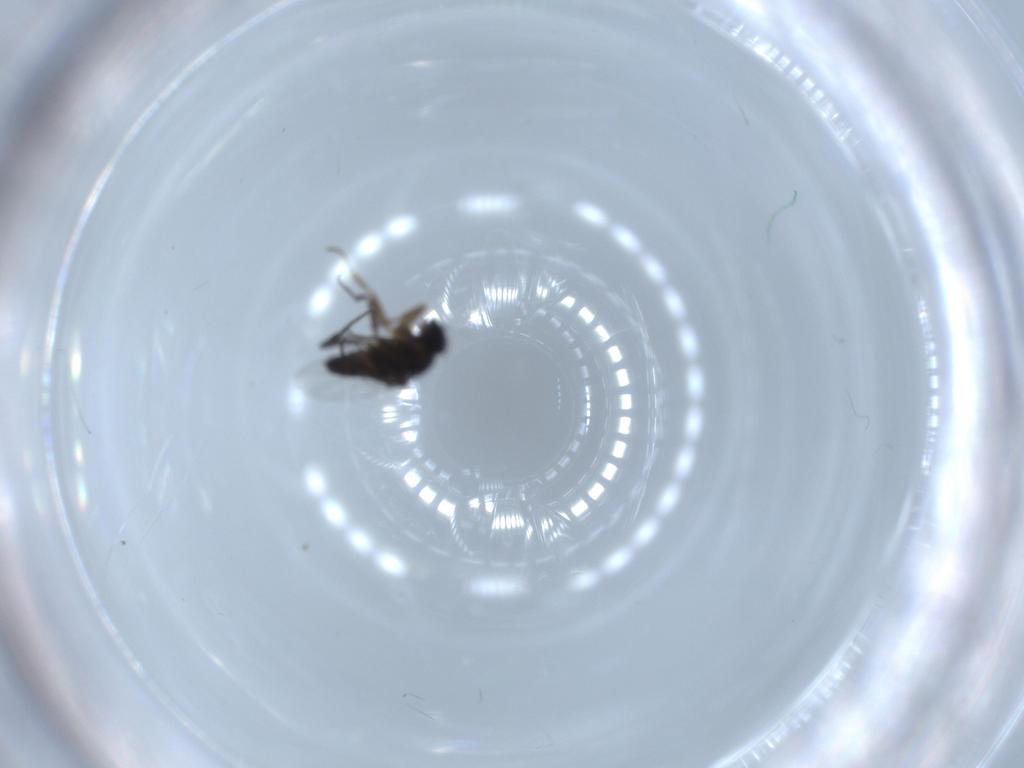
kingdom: Animalia
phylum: Arthropoda
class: Insecta
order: Diptera
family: Phoridae
